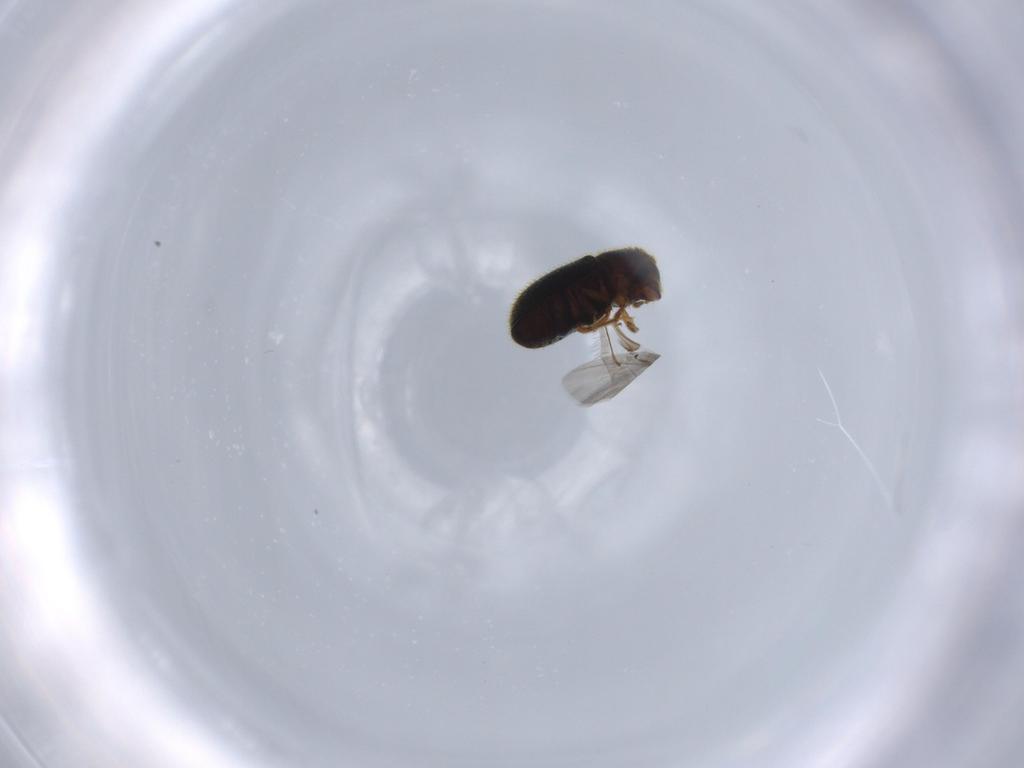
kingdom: Animalia
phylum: Arthropoda
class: Insecta
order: Coleoptera
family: Curculionidae
